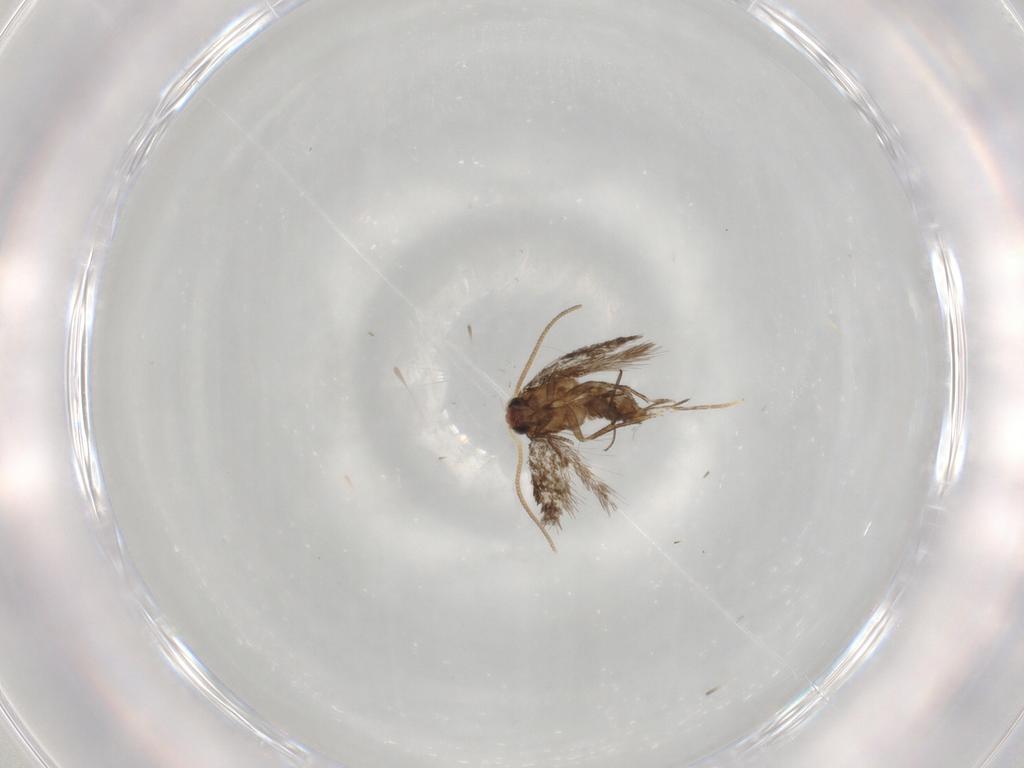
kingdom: Animalia
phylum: Arthropoda
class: Insecta
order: Lepidoptera
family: Nepticulidae
